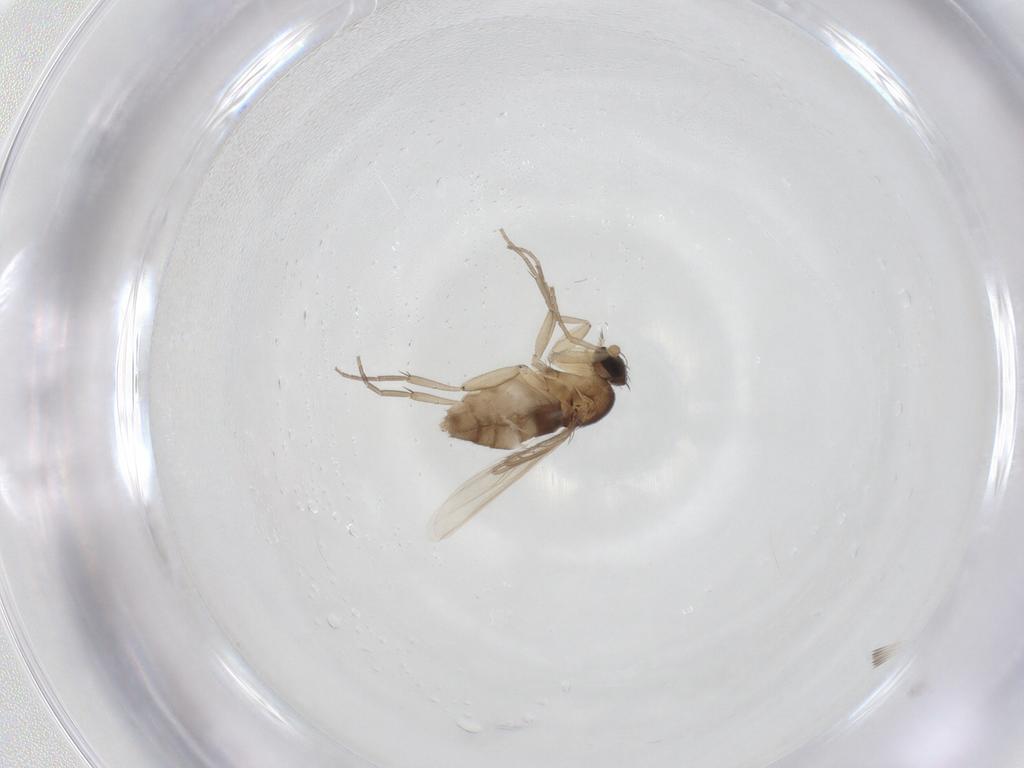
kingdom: Animalia
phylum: Arthropoda
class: Insecta
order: Diptera
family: Phoridae
